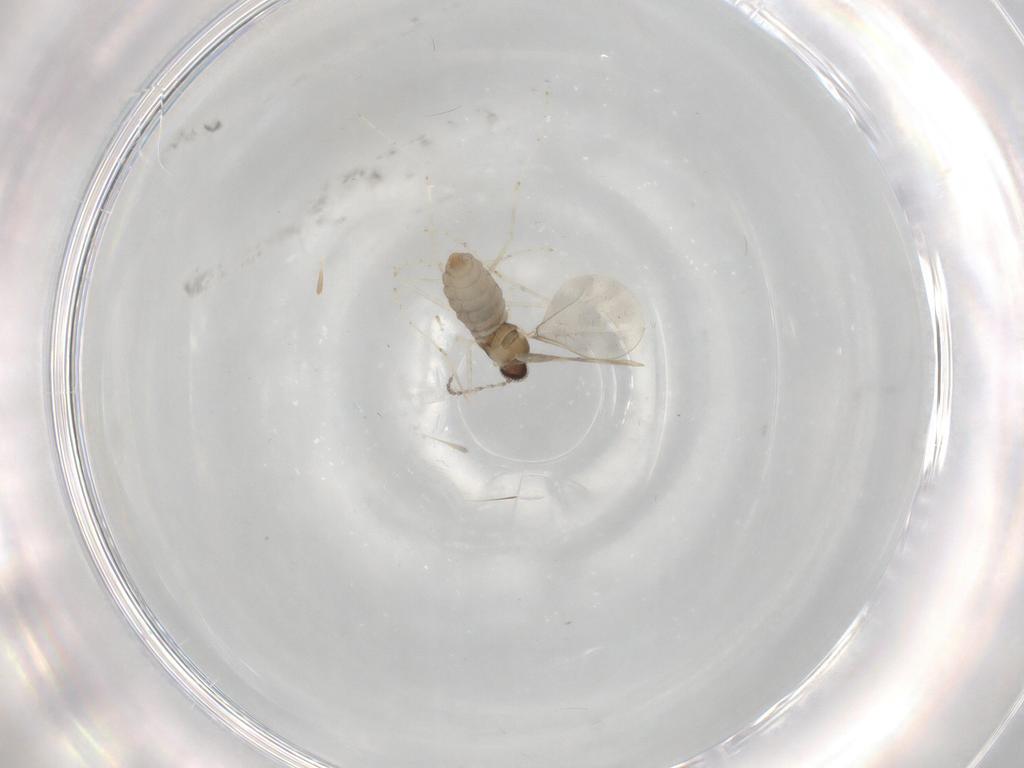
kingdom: Animalia
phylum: Arthropoda
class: Insecta
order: Diptera
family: Cecidomyiidae
